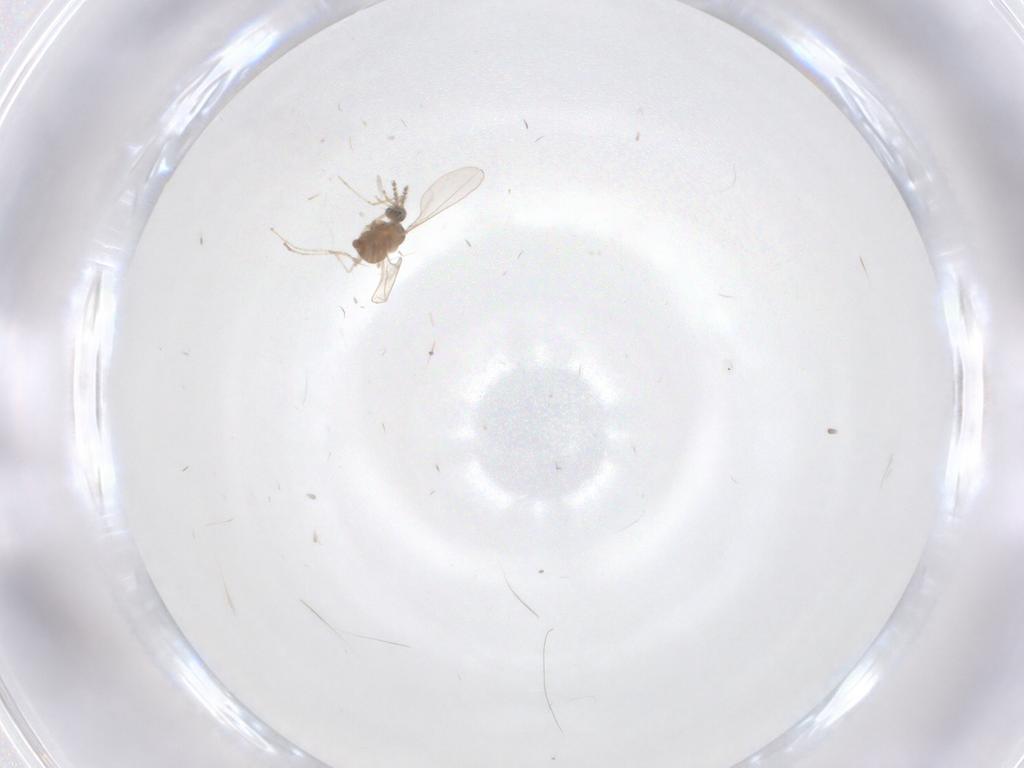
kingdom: Animalia
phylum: Arthropoda
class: Insecta
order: Diptera
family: Cecidomyiidae
